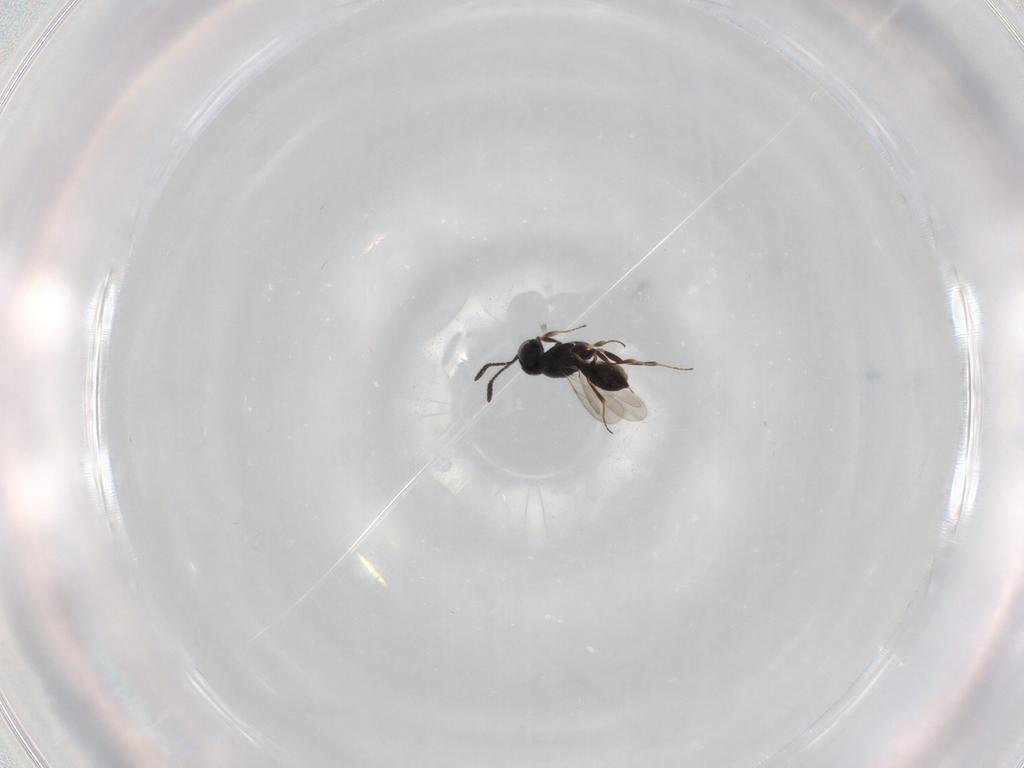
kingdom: Animalia
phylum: Arthropoda
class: Insecta
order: Hymenoptera
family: Scelionidae
